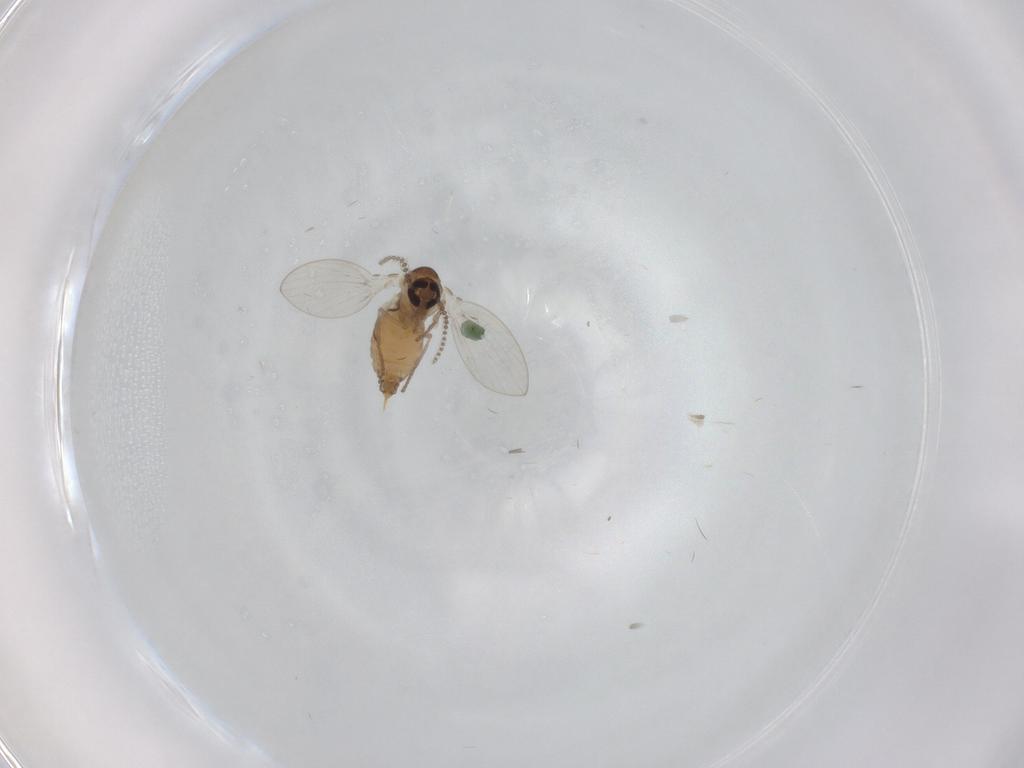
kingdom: Animalia
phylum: Arthropoda
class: Insecta
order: Diptera
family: Psychodidae
